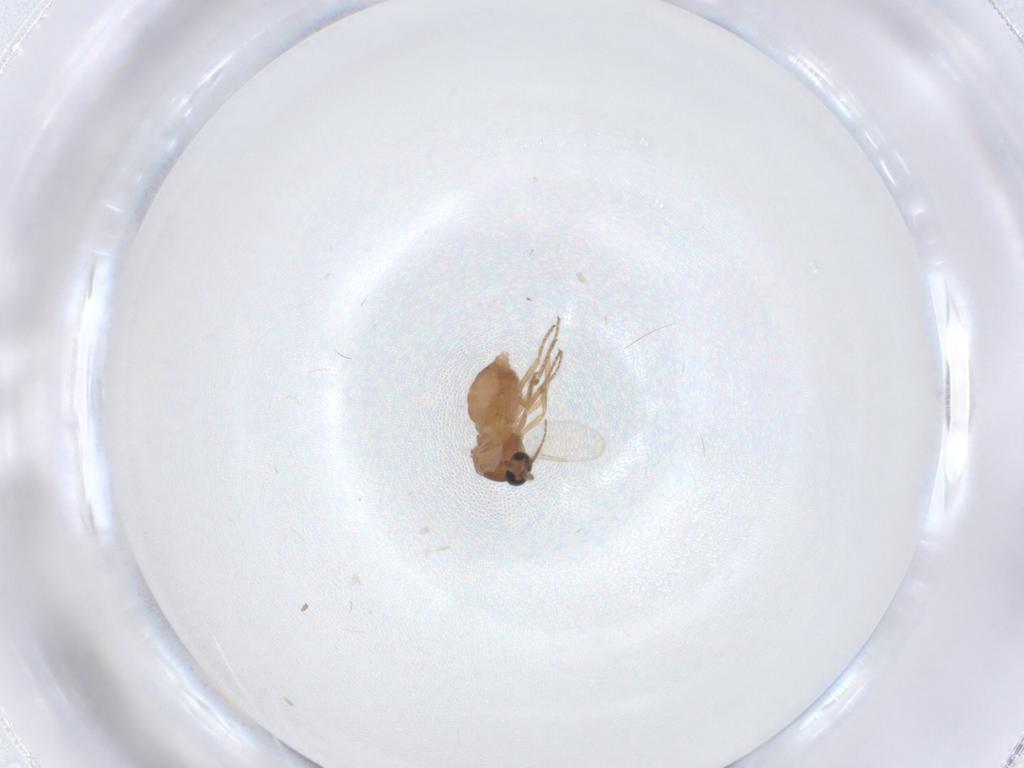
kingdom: Animalia
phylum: Arthropoda
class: Insecta
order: Diptera
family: Ceratopogonidae
